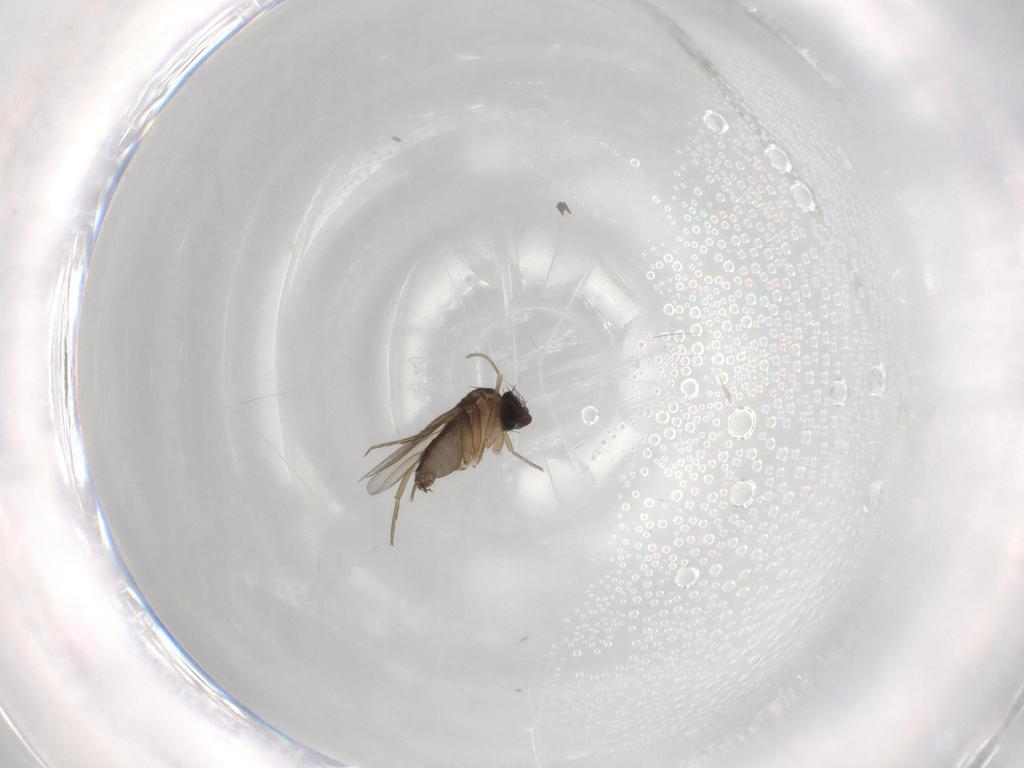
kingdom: Animalia
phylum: Arthropoda
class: Insecta
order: Diptera
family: Phoridae
